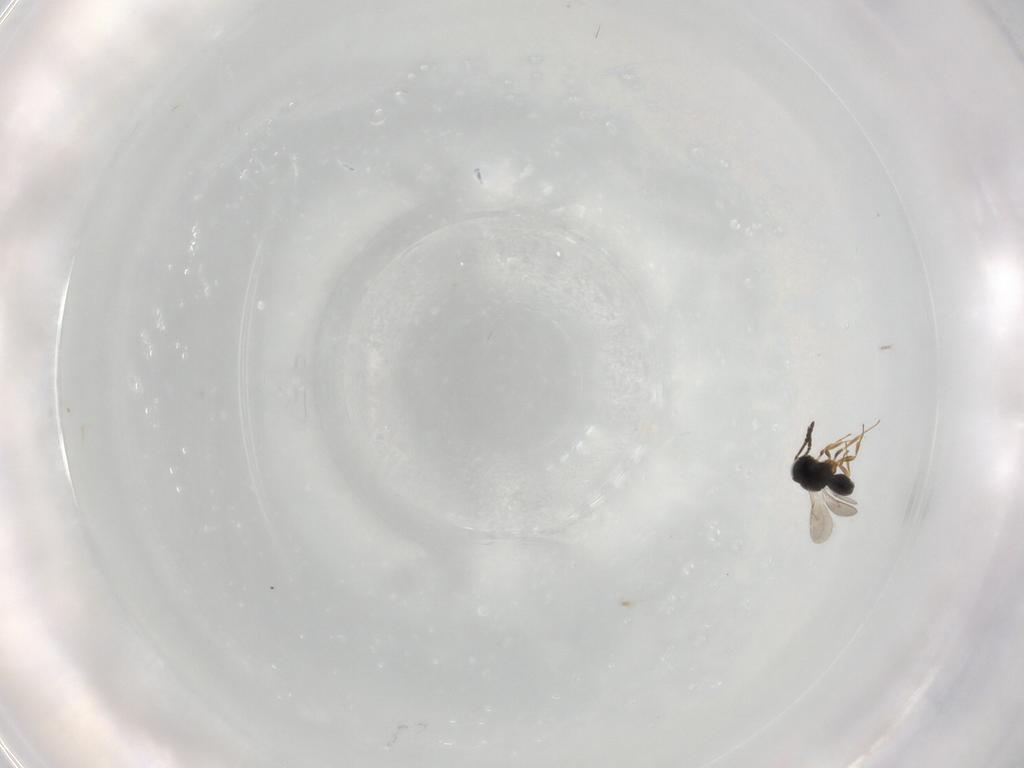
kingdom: Animalia
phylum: Arthropoda
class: Insecta
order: Hymenoptera
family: Scelionidae
